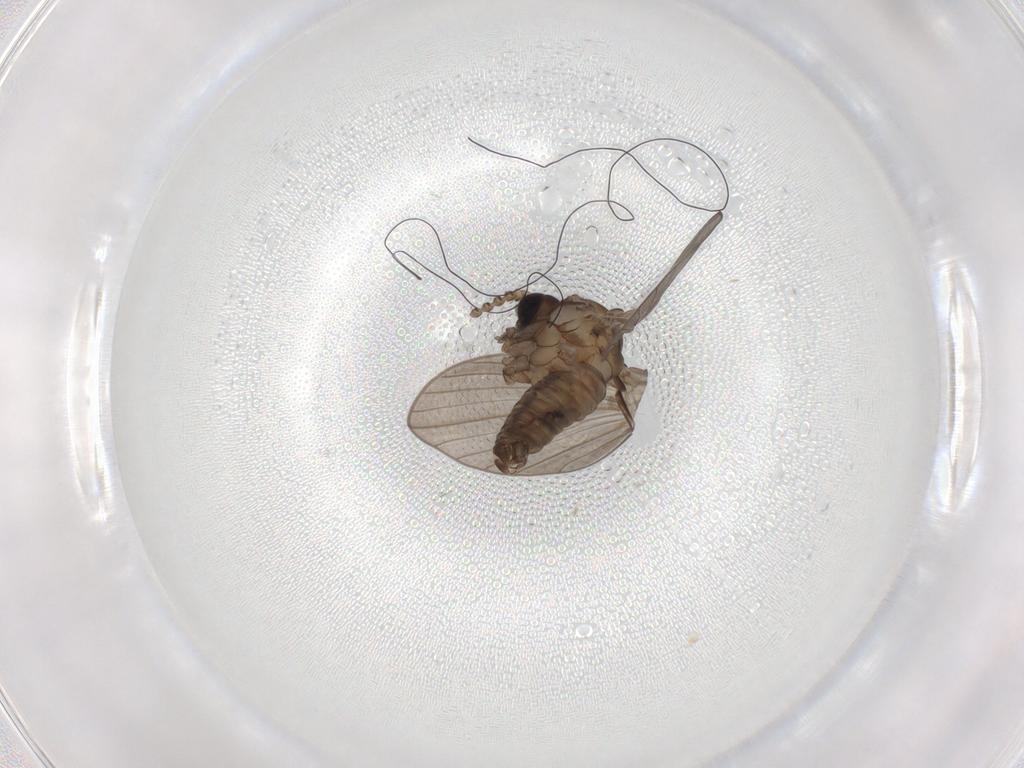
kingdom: Animalia
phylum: Arthropoda
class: Insecta
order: Diptera
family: Psychodidae
